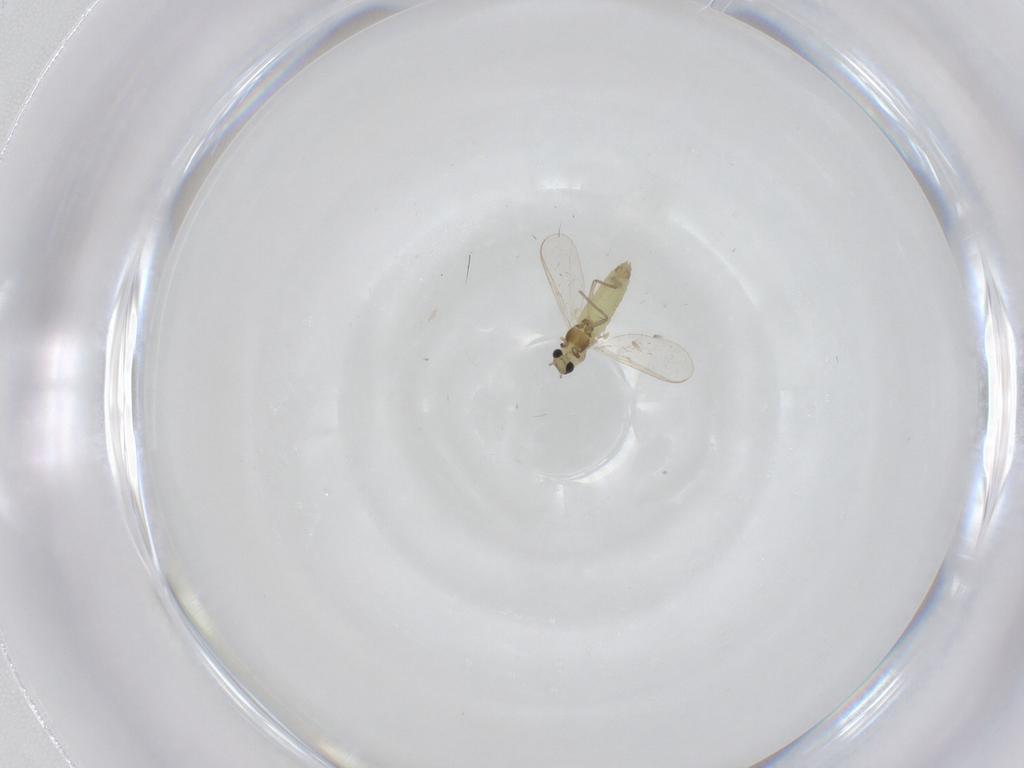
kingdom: Animalia
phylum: Arthropoda
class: Insecta
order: Diptera
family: Chironomidae
